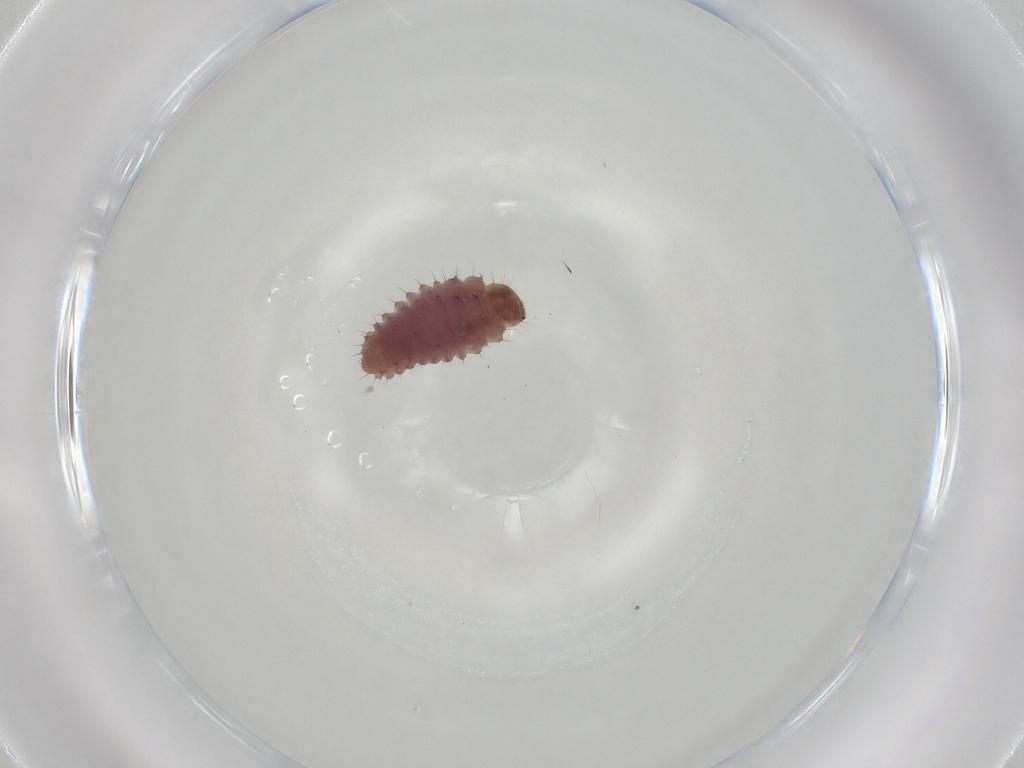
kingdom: Animalia
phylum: Arthropoda
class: Insecta
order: Coleoptera
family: Coccinellidae
